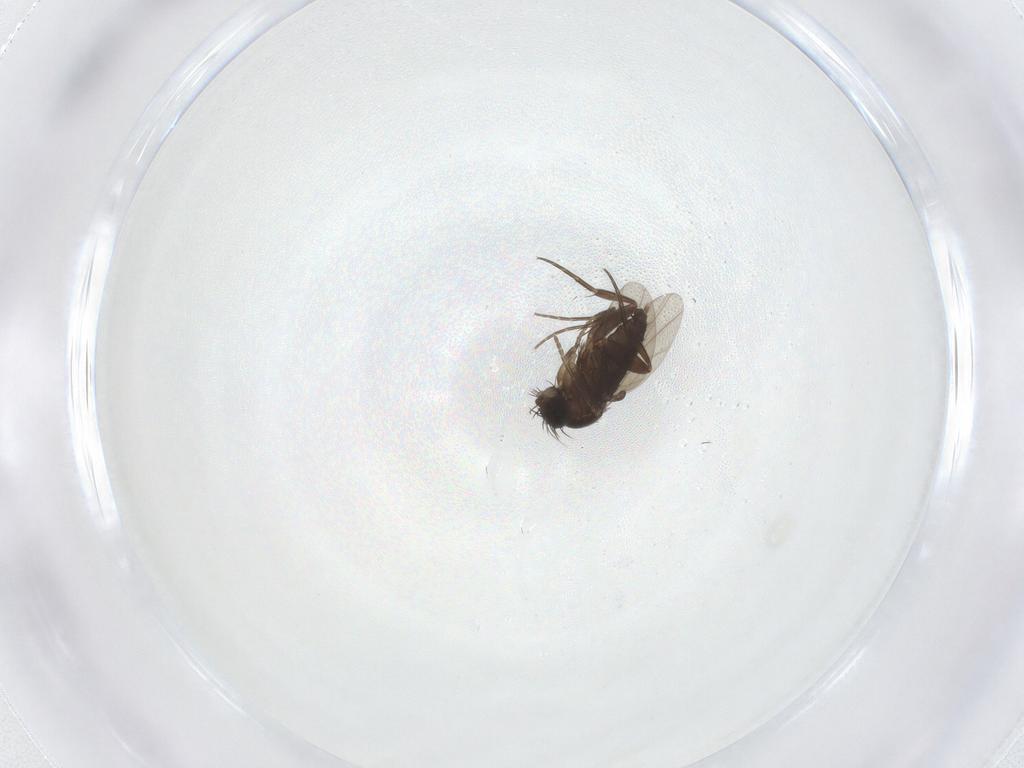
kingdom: Animalia
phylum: Arthropoda
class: Insecta
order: Diptera
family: Phoridae
